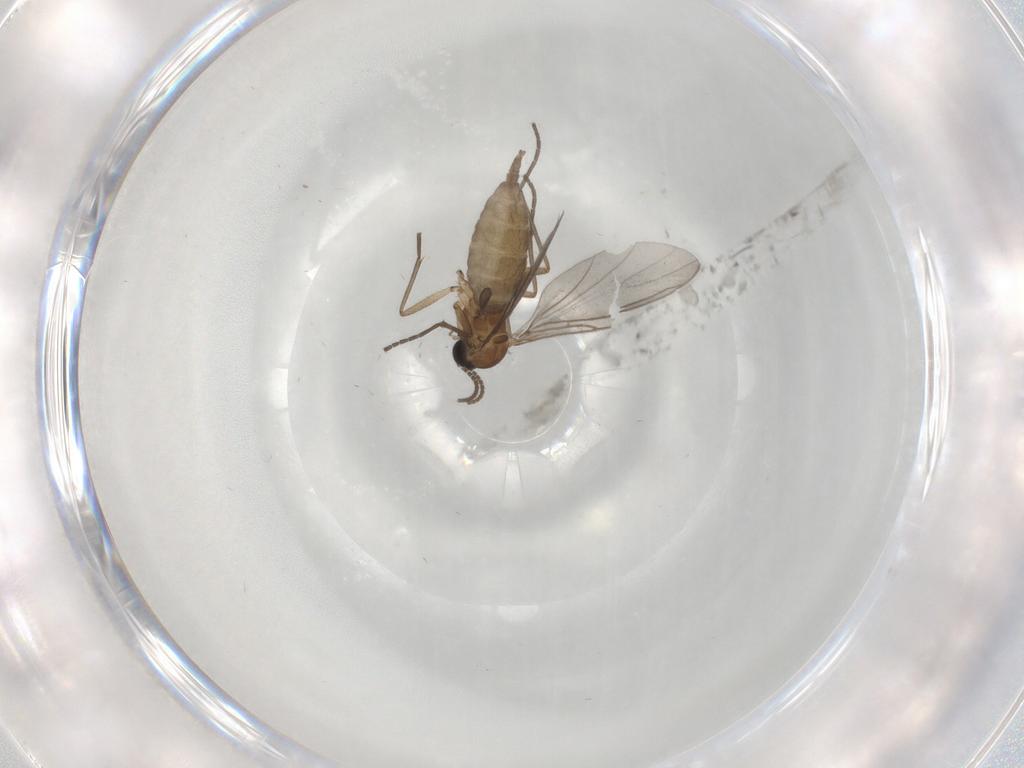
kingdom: Animalia
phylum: Arthropoda
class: Insecta
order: Diptera
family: Sciaridae
